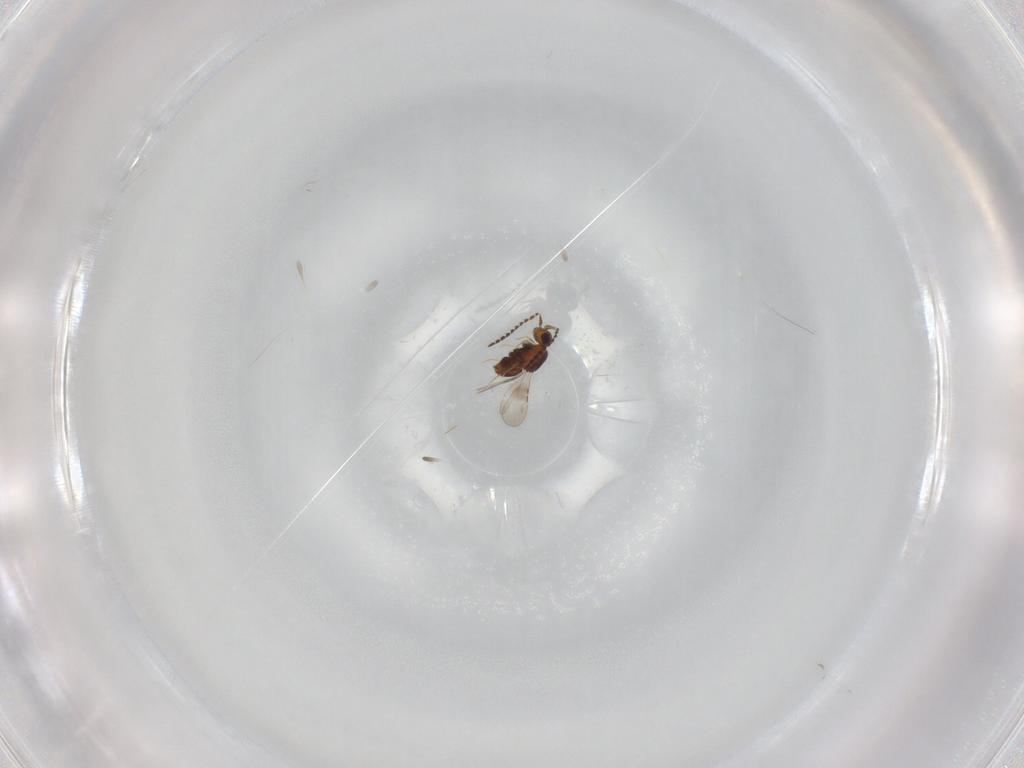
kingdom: Animalia
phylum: Arthropoda
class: Insecta
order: Hymenoptera
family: Ceraphronidae
